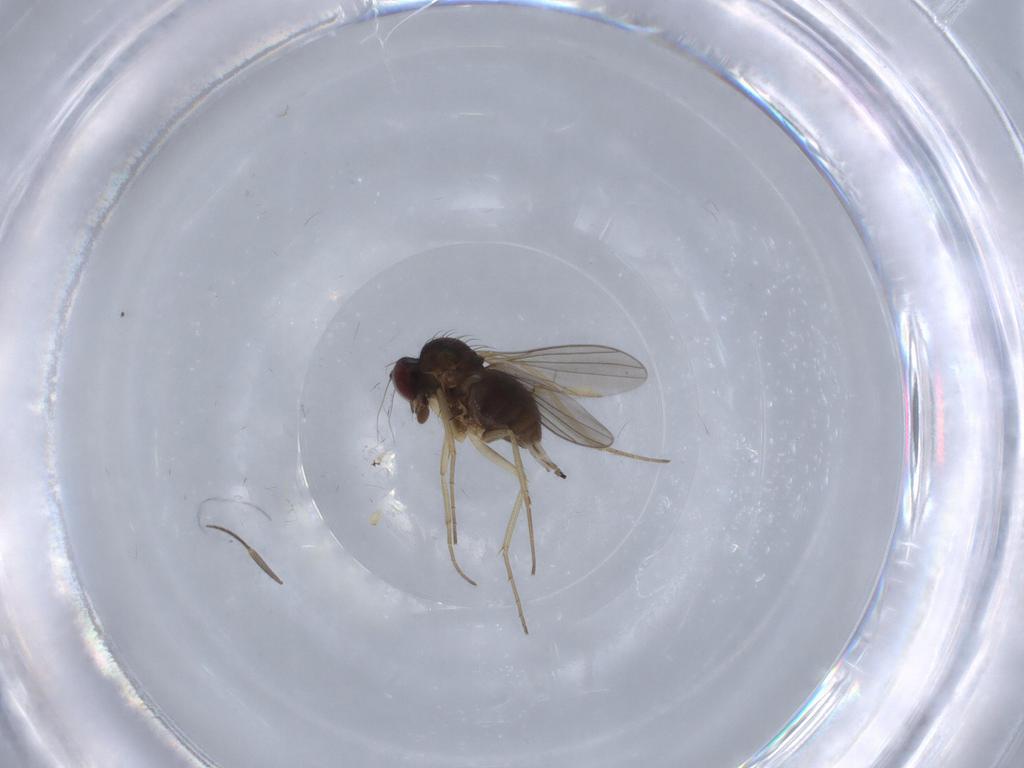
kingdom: Animalia
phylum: Arthropoda
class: Insecta
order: Diptera
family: Dolichopodidae
